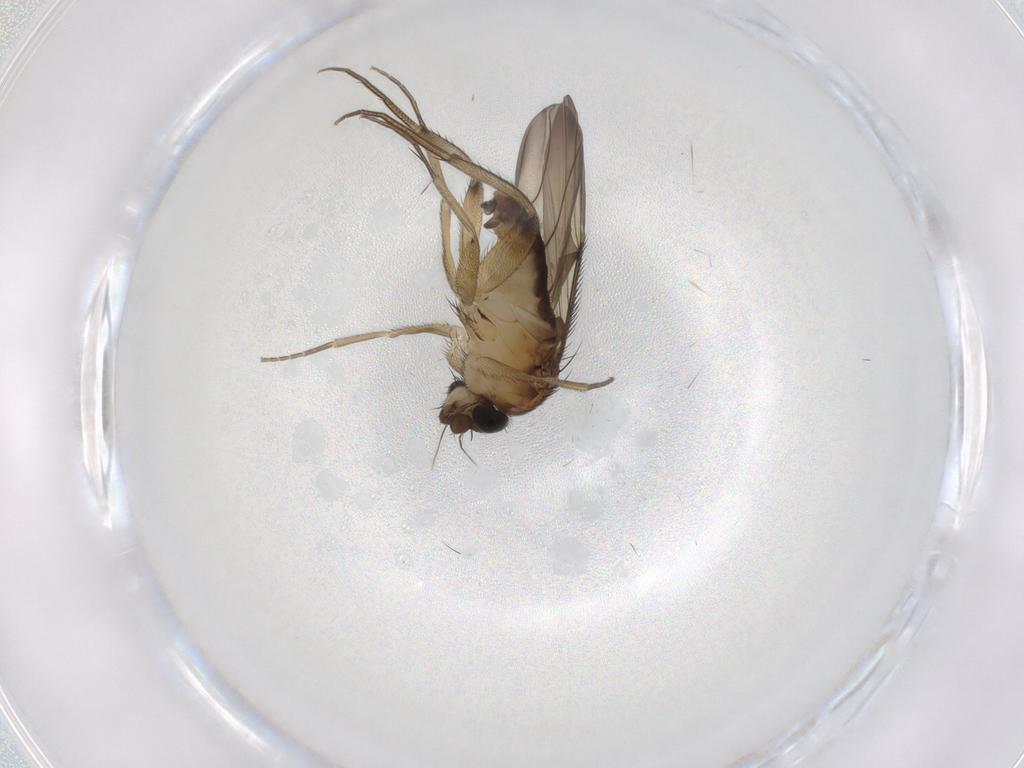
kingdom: Animalia
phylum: Arthropoda
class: Insecta
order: Diptera
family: Phoridae
